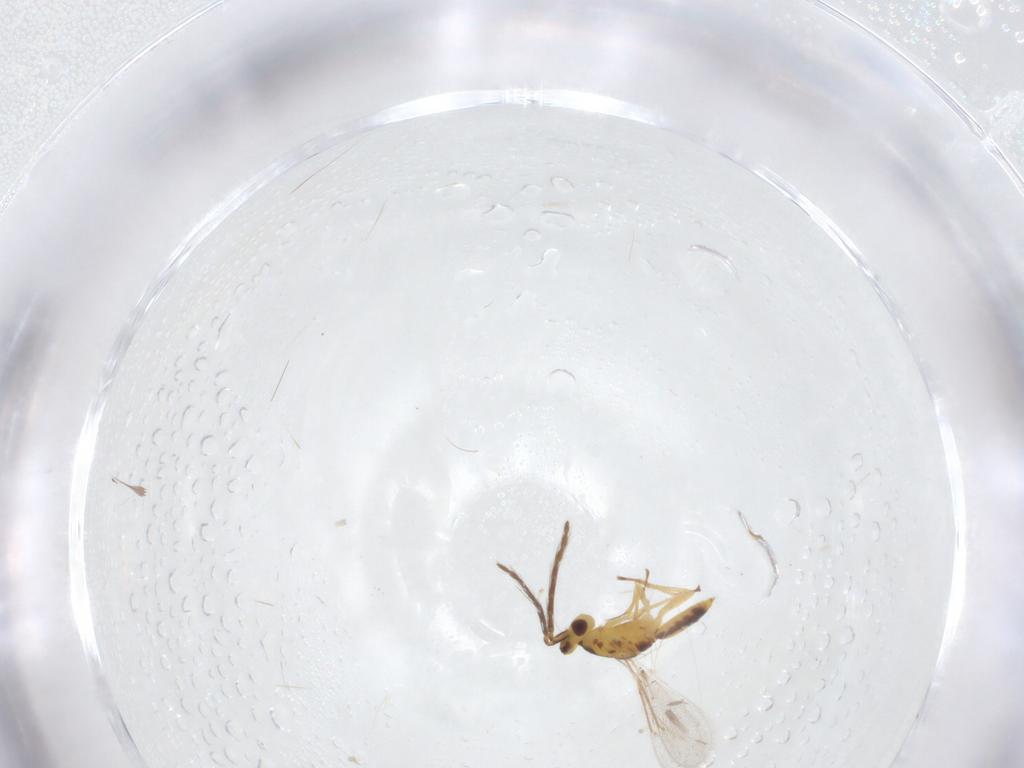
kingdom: Animalia
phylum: Arthropoda
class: Insecta
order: Hymenoptera
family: Eulophidae
